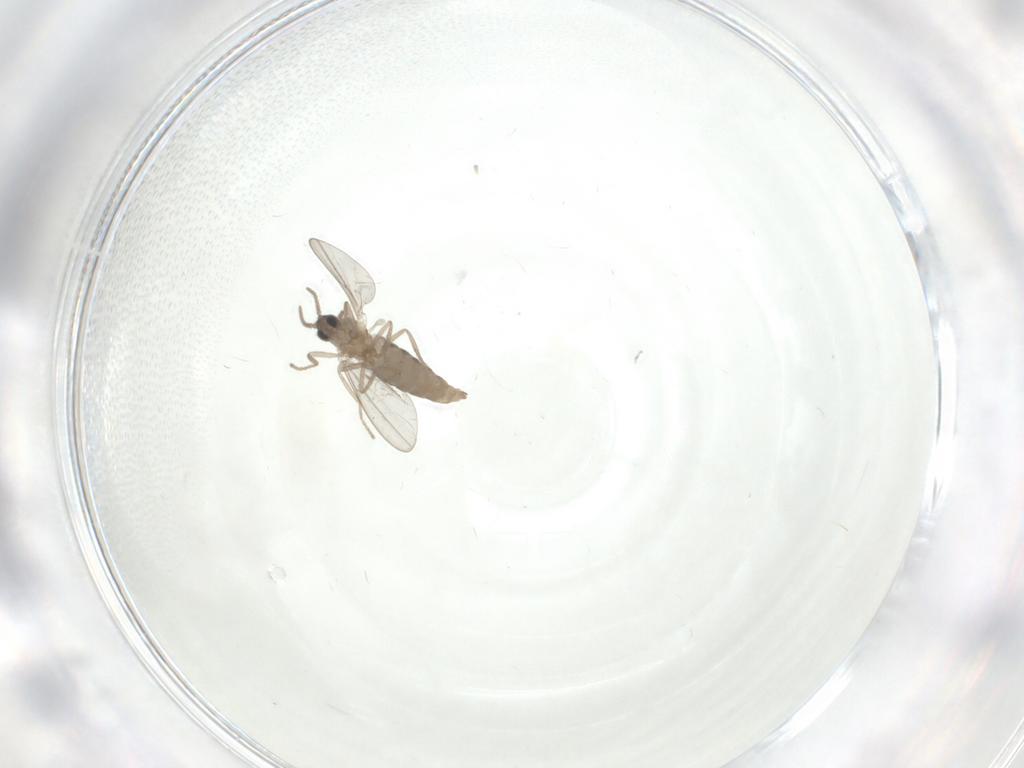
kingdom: Animalia
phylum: Arthropoda
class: Insecta
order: Diptera
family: Cecidomyiidae
